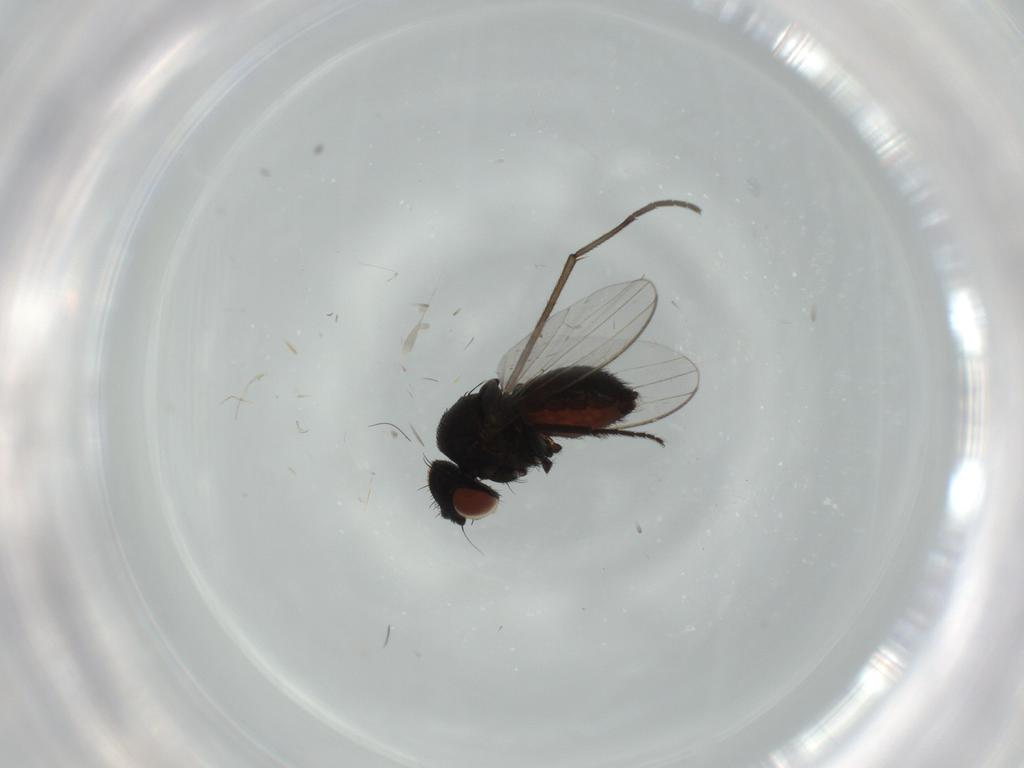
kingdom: Animalia
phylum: Arthropoda
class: Insecta
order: Diptera
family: Milichiidae
